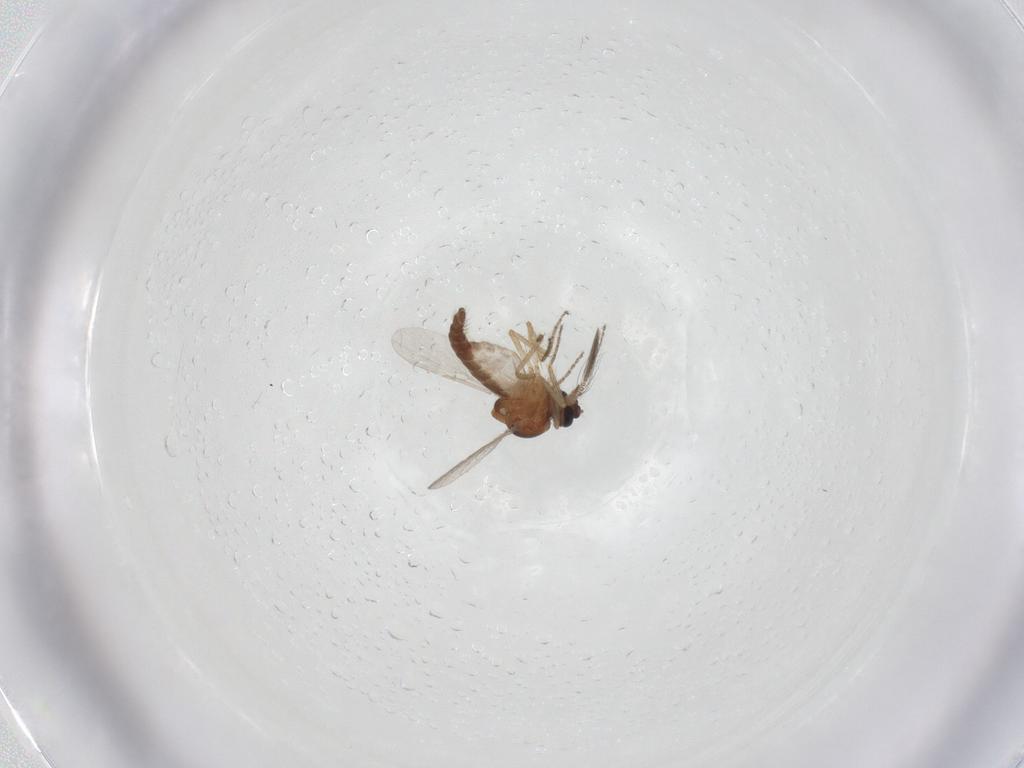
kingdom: Animalia
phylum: Arthropoda
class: Insecta
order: Diptera
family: Ceratopogonidae
